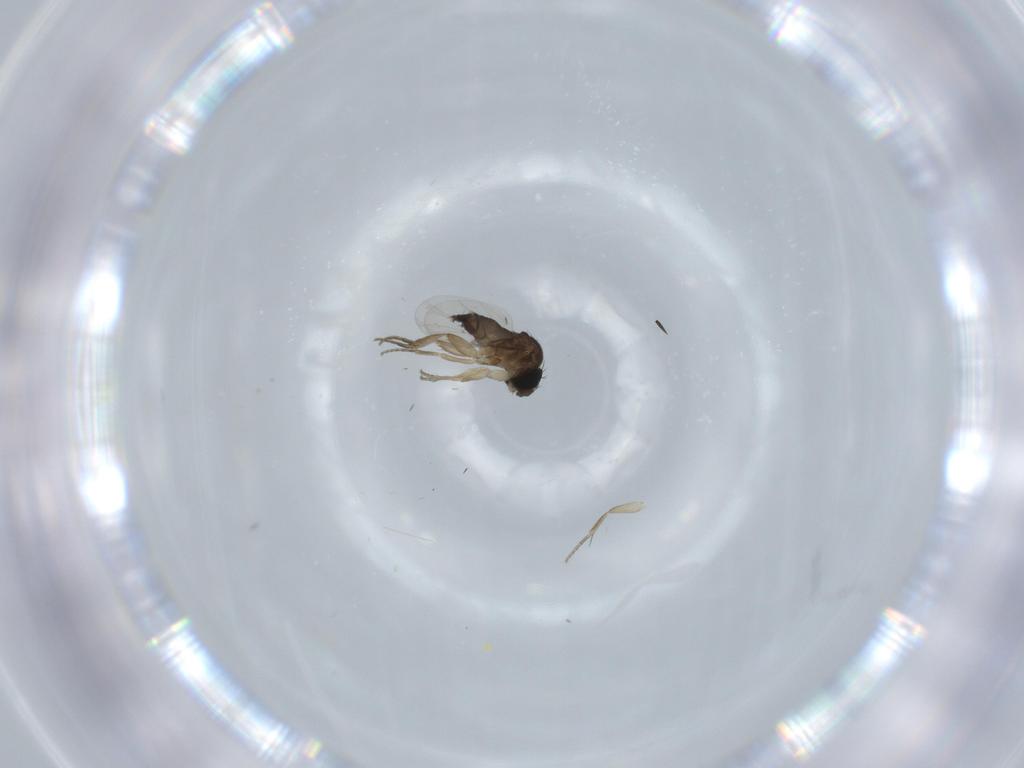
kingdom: Animalia
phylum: Arthropoda
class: Insecta
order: Diptera
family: Phoridae
